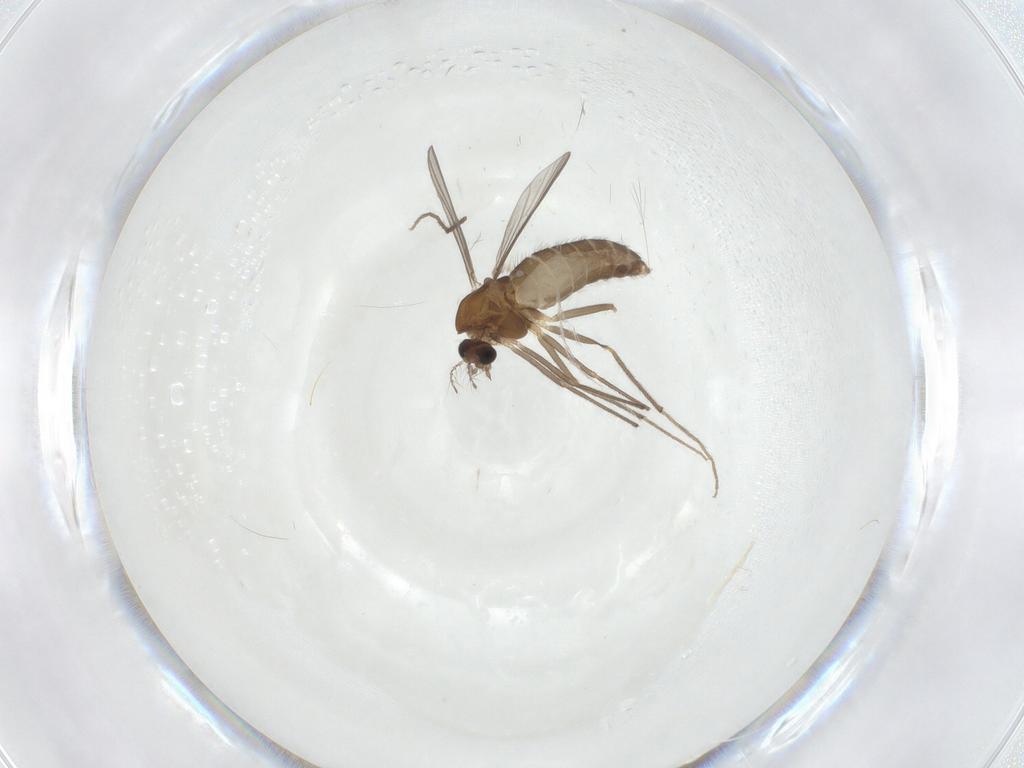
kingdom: Animalia
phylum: Arthropoda
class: Insecta
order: Diptera
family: Chironomidae
